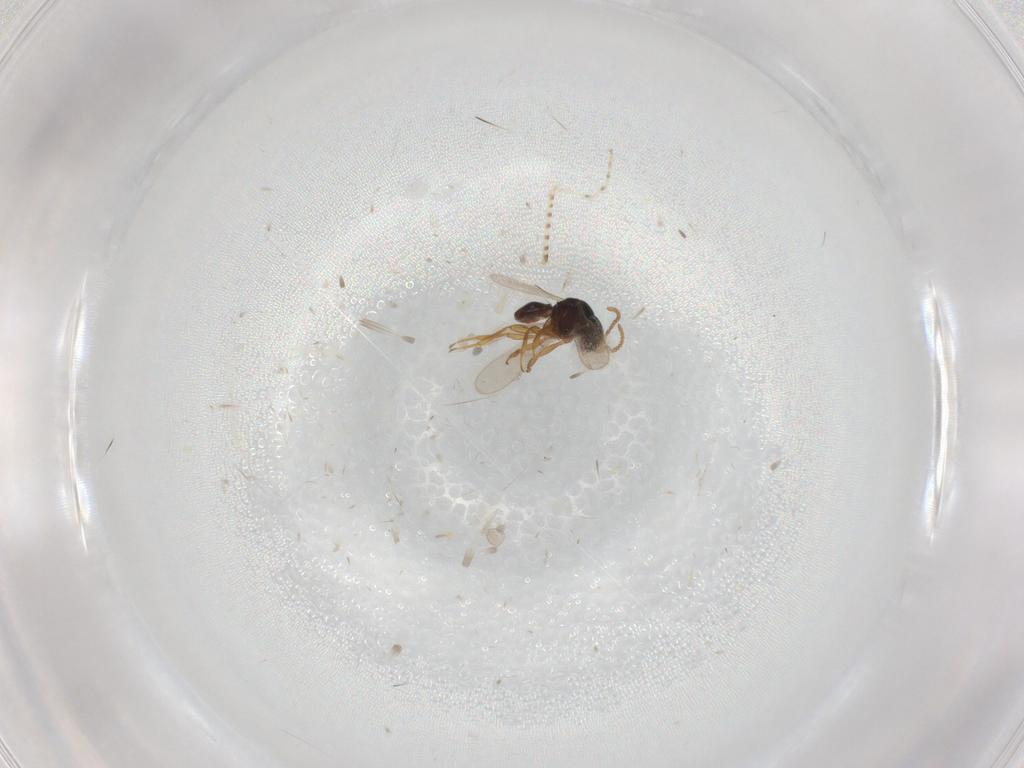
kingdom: Animalia
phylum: Arthropoda
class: Insecta
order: Hymenoptera
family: Scelionidae
